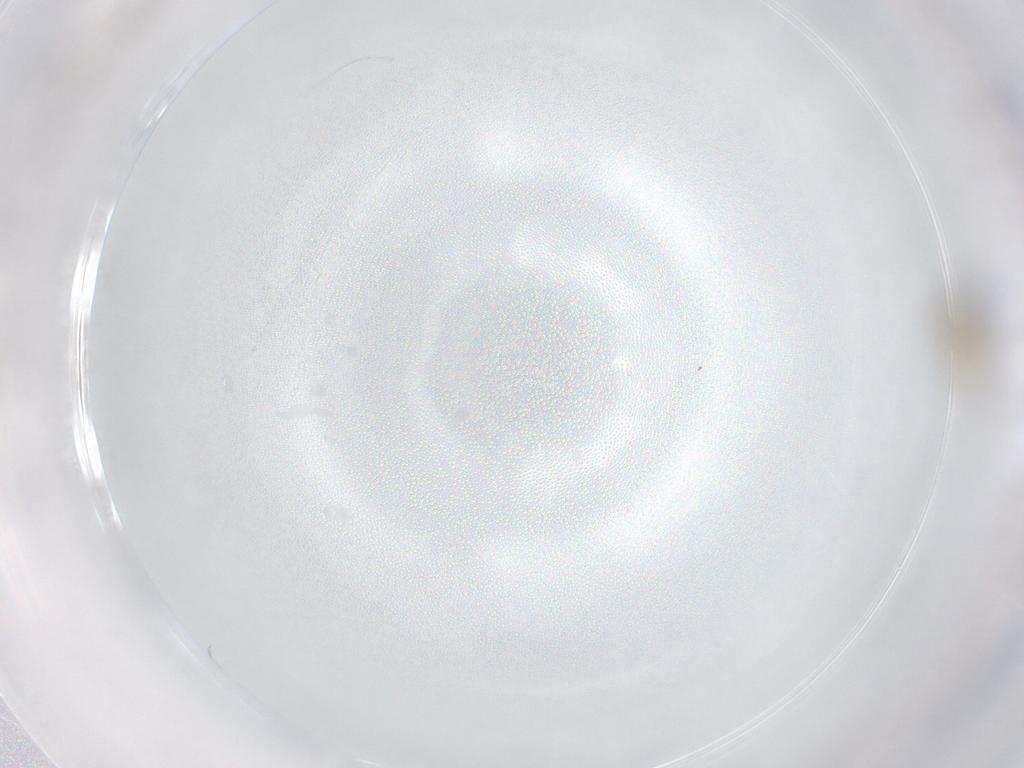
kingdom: Animalia
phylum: Arthropoda
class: Insecta
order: Diptera
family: Cecidomyiidae
